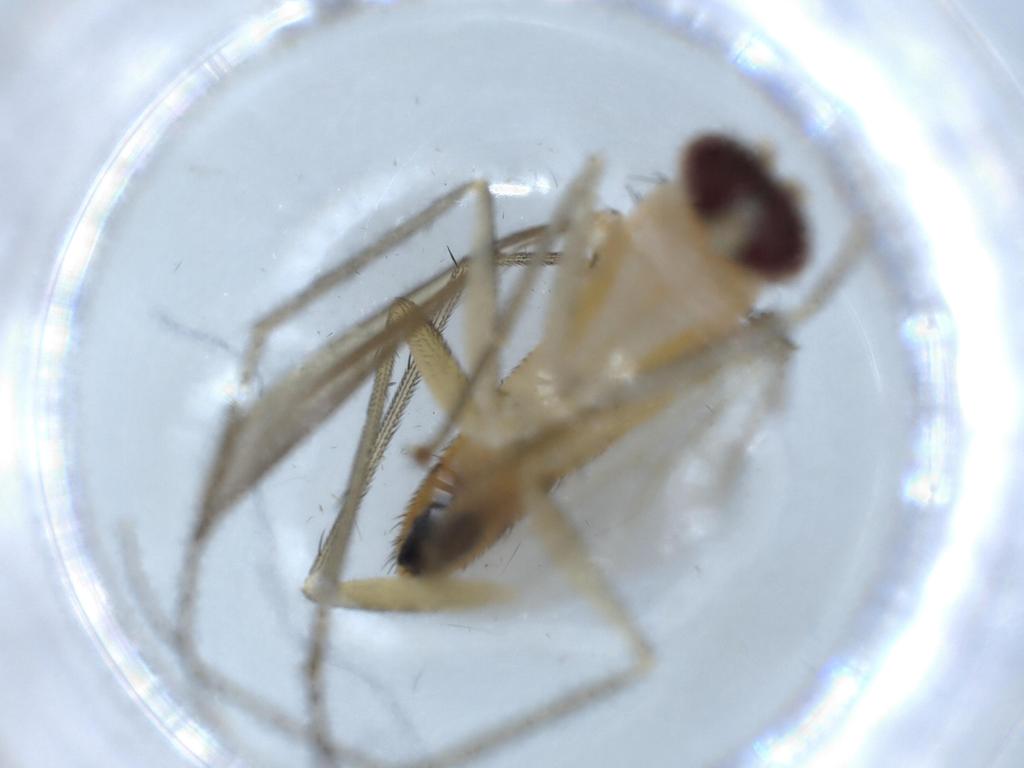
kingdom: Animalia
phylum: Arthropoda
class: Insecta
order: Diptera
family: Dolichopodidae
